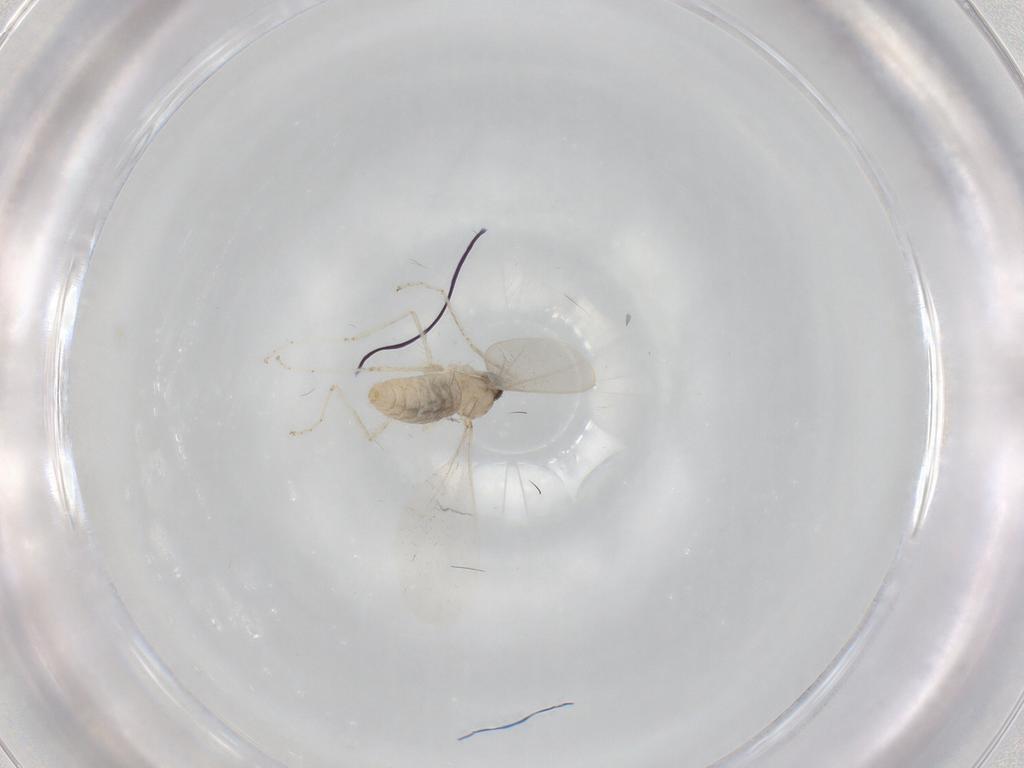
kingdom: Animalia
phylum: Arthropoda
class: Insecta
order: Diptera
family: Cecidomyiidae
